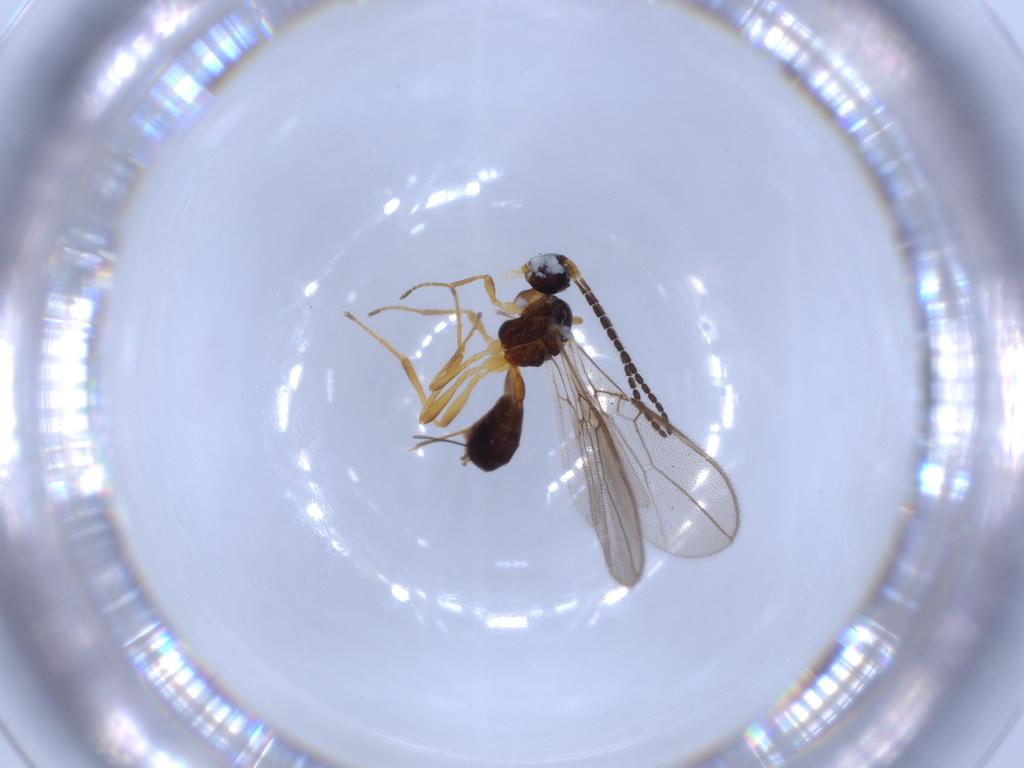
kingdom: Animalia
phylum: Arthropoda
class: Insecta
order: Hymenoptera
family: Braconidae
